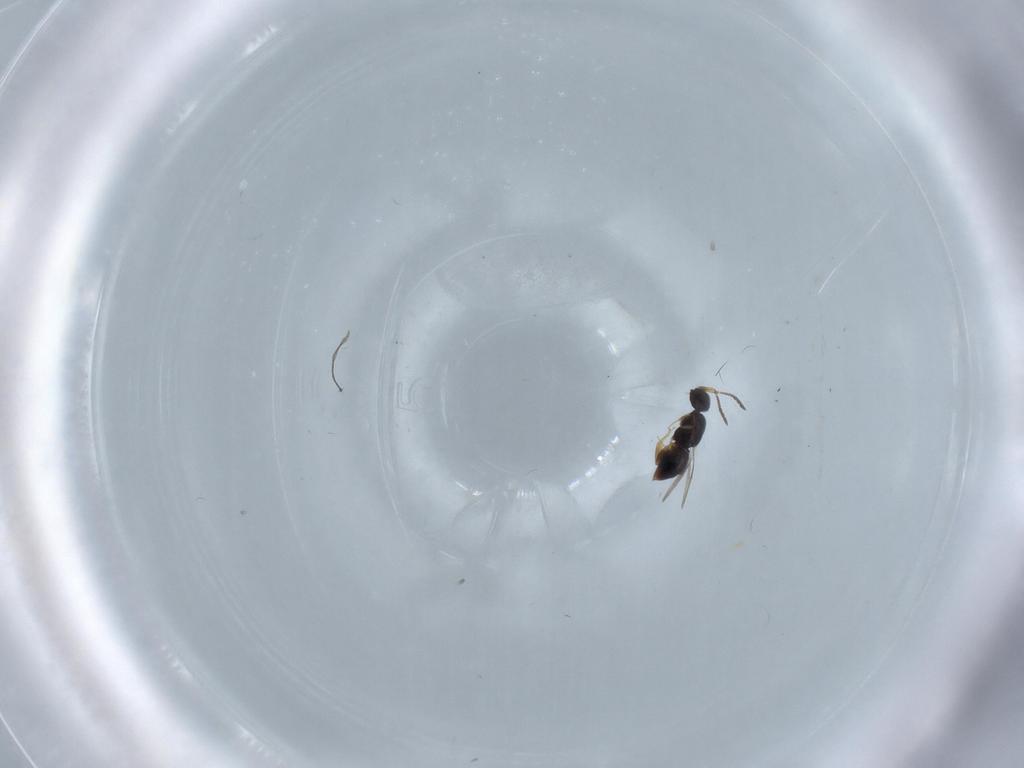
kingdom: Animalia
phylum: Arthropoda
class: Insecta
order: Hymenoptera
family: Ceraphronidae
